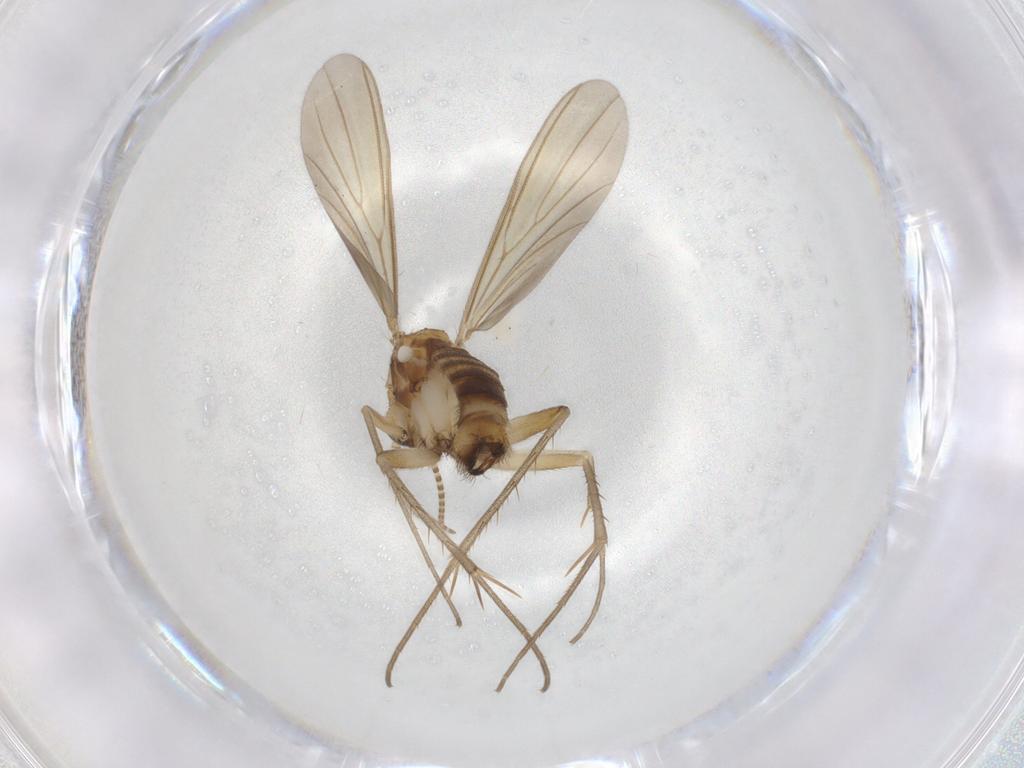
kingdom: Animalia
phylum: Arthropoda
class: Insecta
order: Diptera
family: Mycetophilidae
